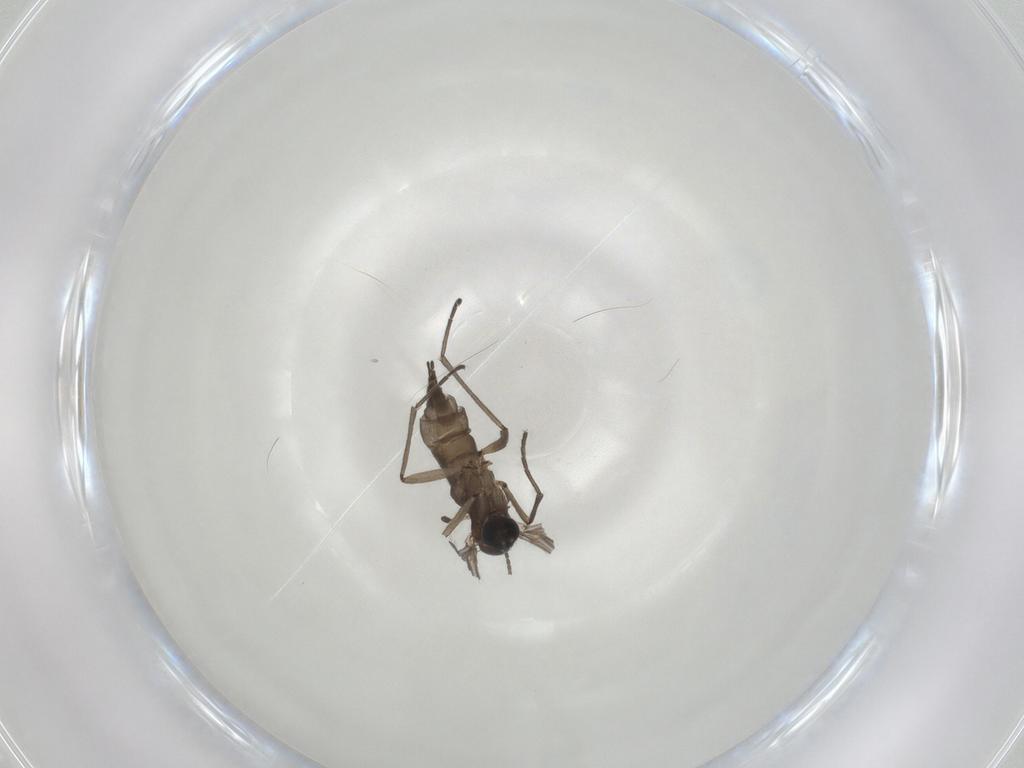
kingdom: Animalia
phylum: Arthropoda
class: Insecta
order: Diptera
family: Sciaridae
